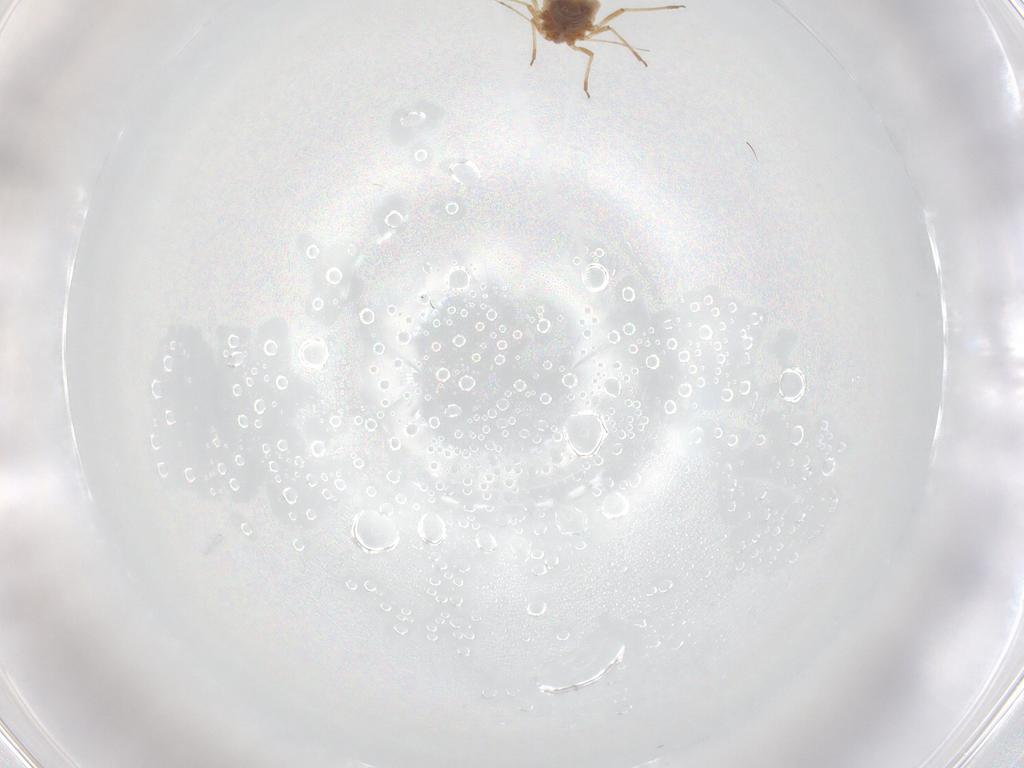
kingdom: Animalia
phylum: Arthropoda
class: Insecta
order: Hemiptera
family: Aphididae
